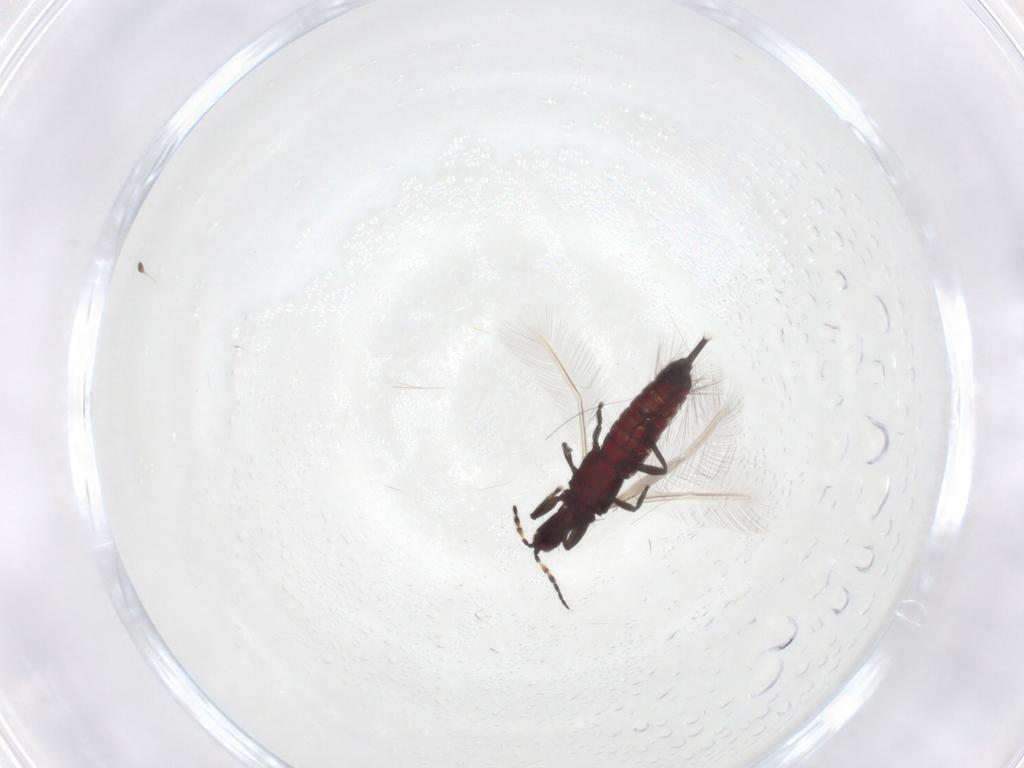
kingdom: Animalia
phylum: Arthropoda
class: Insecta
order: Thysanoptera
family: Phlaeothripidae
